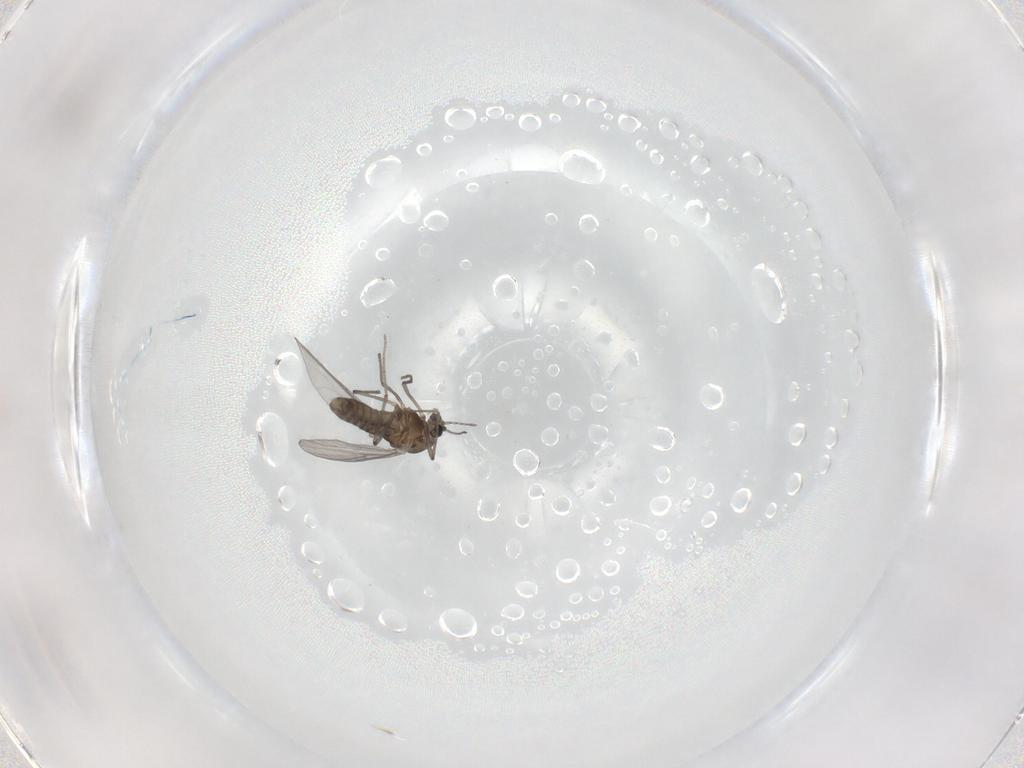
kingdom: Animalia
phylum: Arthropoda
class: Insecta
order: Diptera
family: Chironomidae
